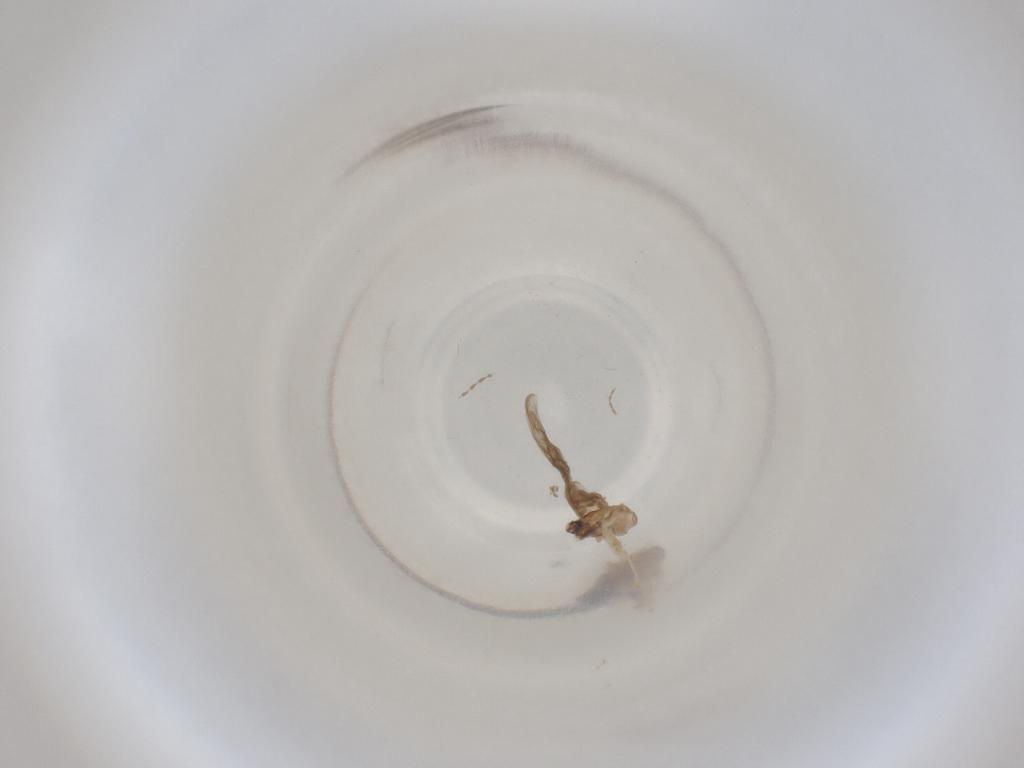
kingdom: Animalia
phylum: Arthropoda
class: Insecta
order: Diptera
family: Cecidomyiidae
